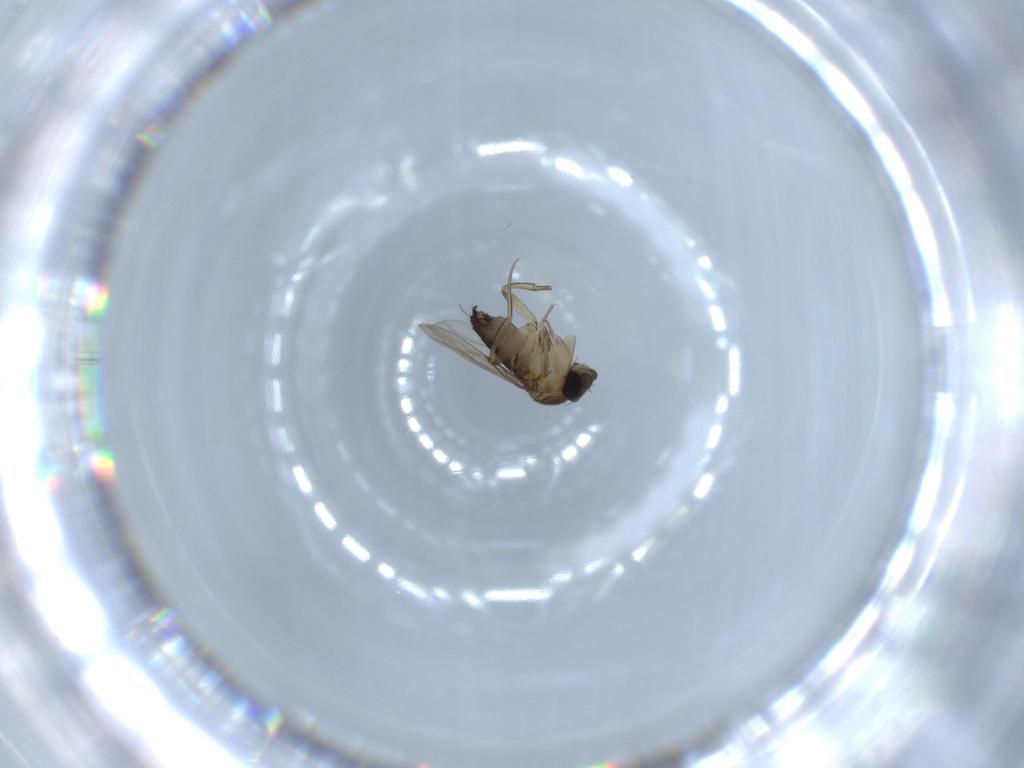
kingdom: Animalia
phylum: Arthropoda
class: Insecta
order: Diptera
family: Phoridae
